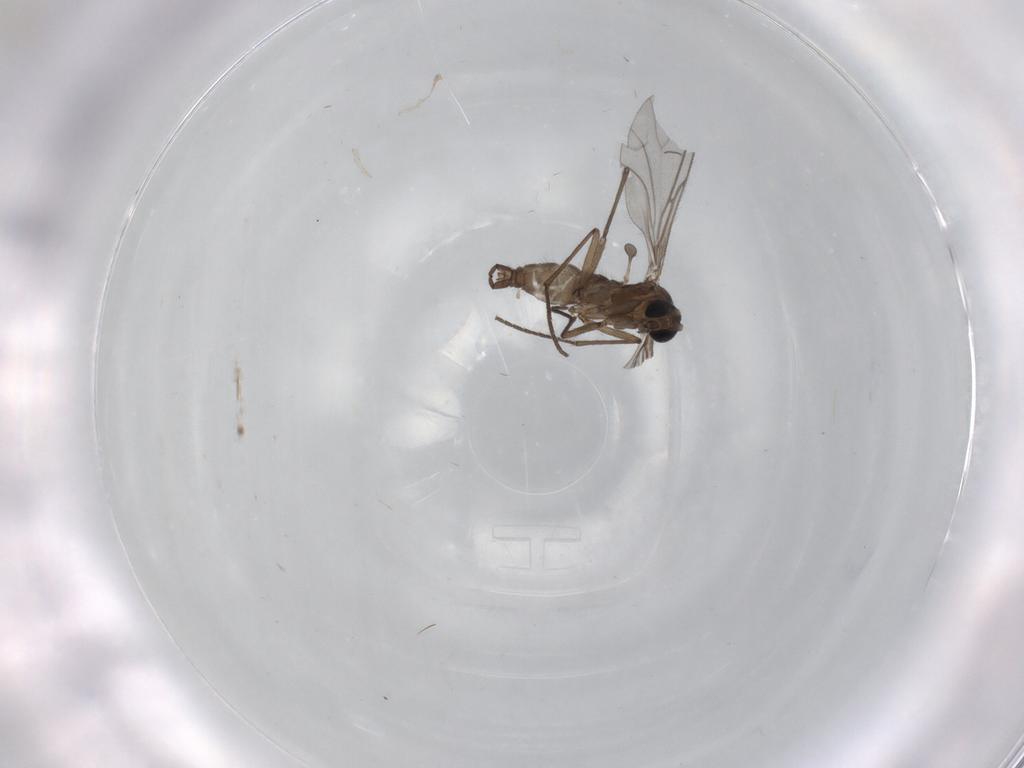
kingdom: Animalia
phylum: Arthropoda
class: Insecta
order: Diptera
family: Sciaridae
